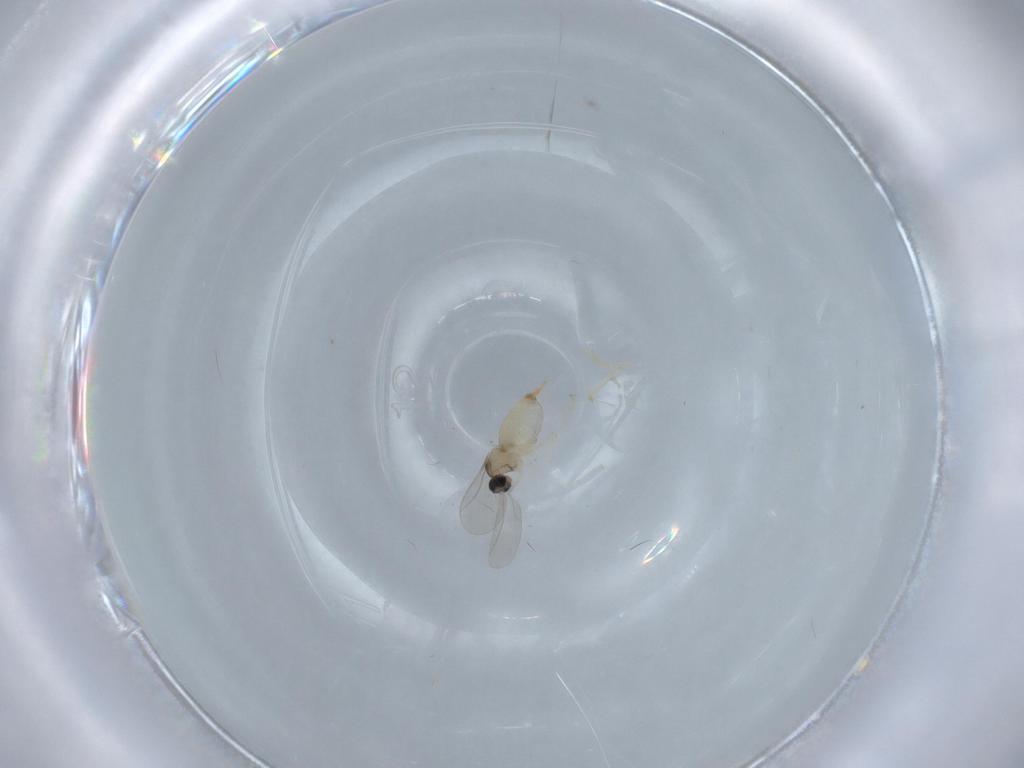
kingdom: Animalia
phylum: Arthropoda
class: Insecta
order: Diptera
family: Cecidomyiidae
